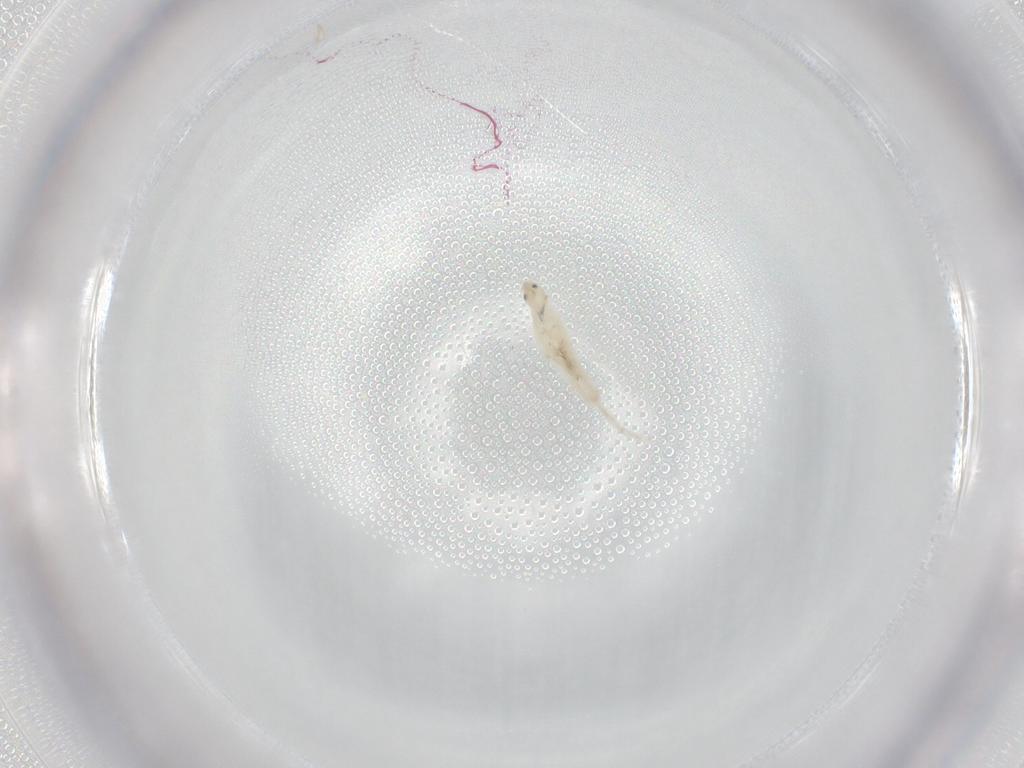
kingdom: Animalia
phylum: Arthropoda
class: Collembola
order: Entomobryomorpha
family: Entomobryidae
